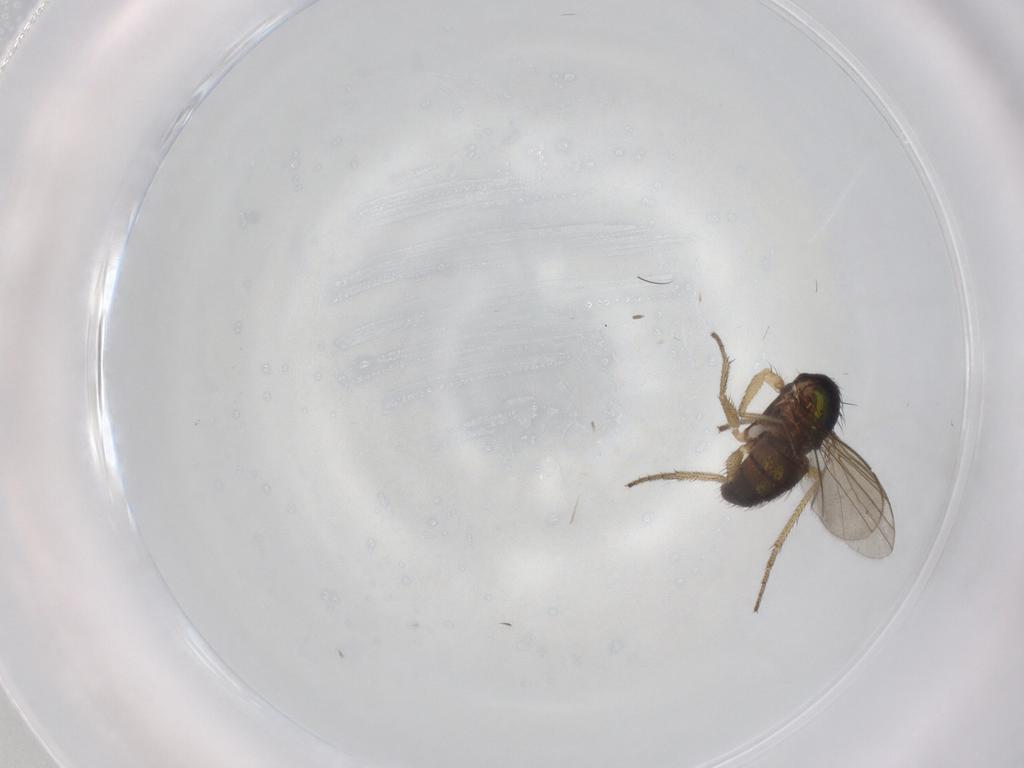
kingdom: Animalia
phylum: Arthropoda
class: Insecta
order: Diptera
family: Dolichopodidae
